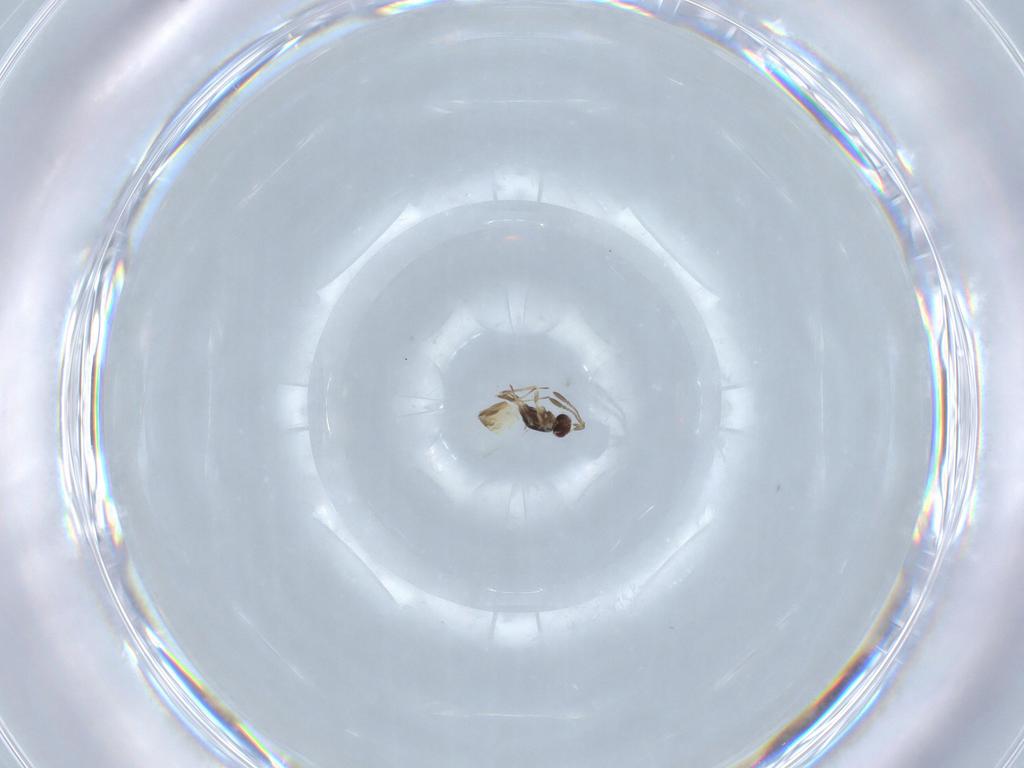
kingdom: Animalia
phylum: Arthropoda
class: Insecta
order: Hymenoptera
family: Mymaridae
